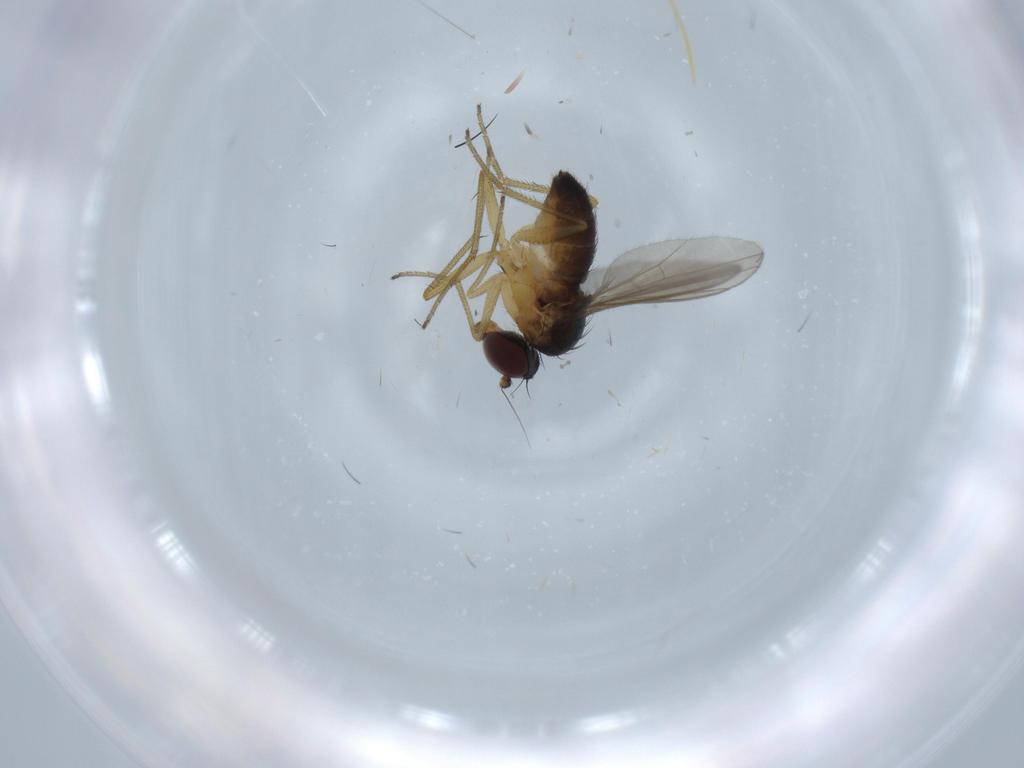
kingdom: Animalia
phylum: Arthropoda
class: Insecta
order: Diptera
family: Dolichopodidae
